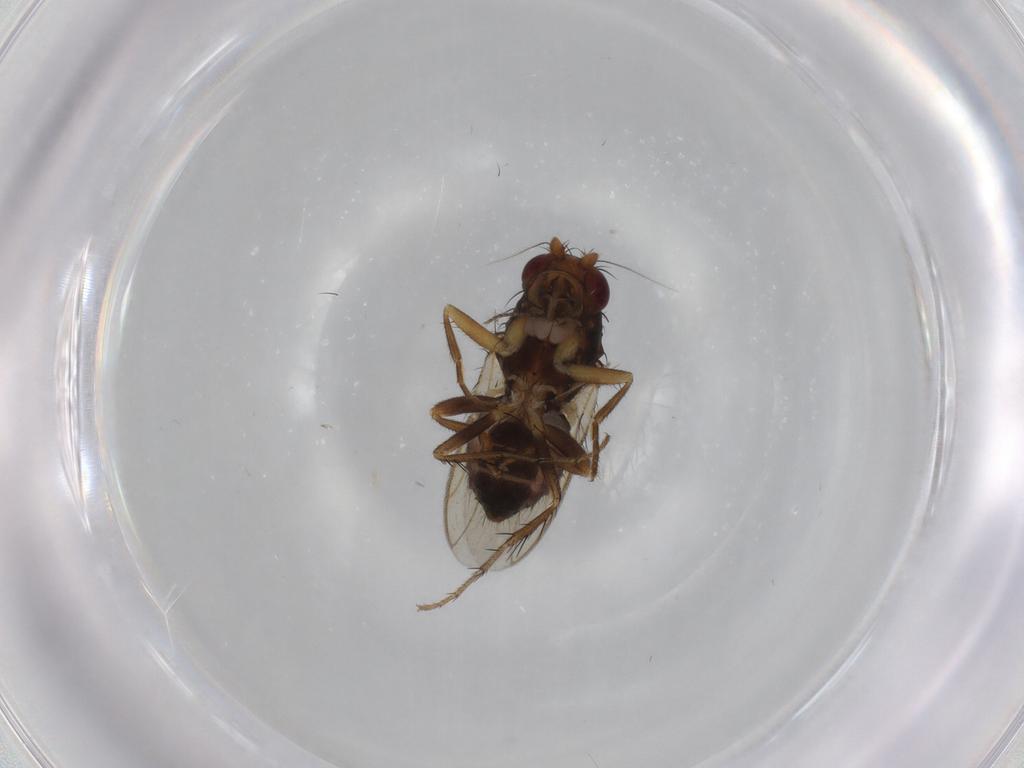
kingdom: Animalia
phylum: Arthropoda
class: Insecta
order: Diptera
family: Sphaeroceridae
